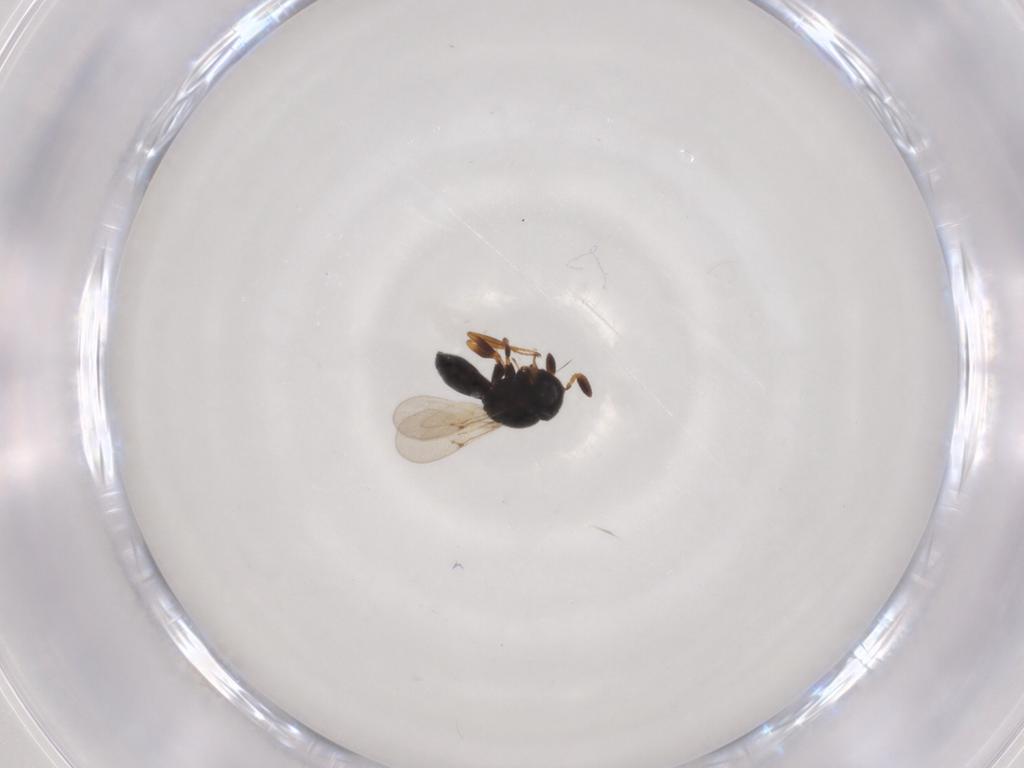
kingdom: Animalia
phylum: Arthropoda
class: Insecta
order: Hymenoptera
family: Scelionidae
